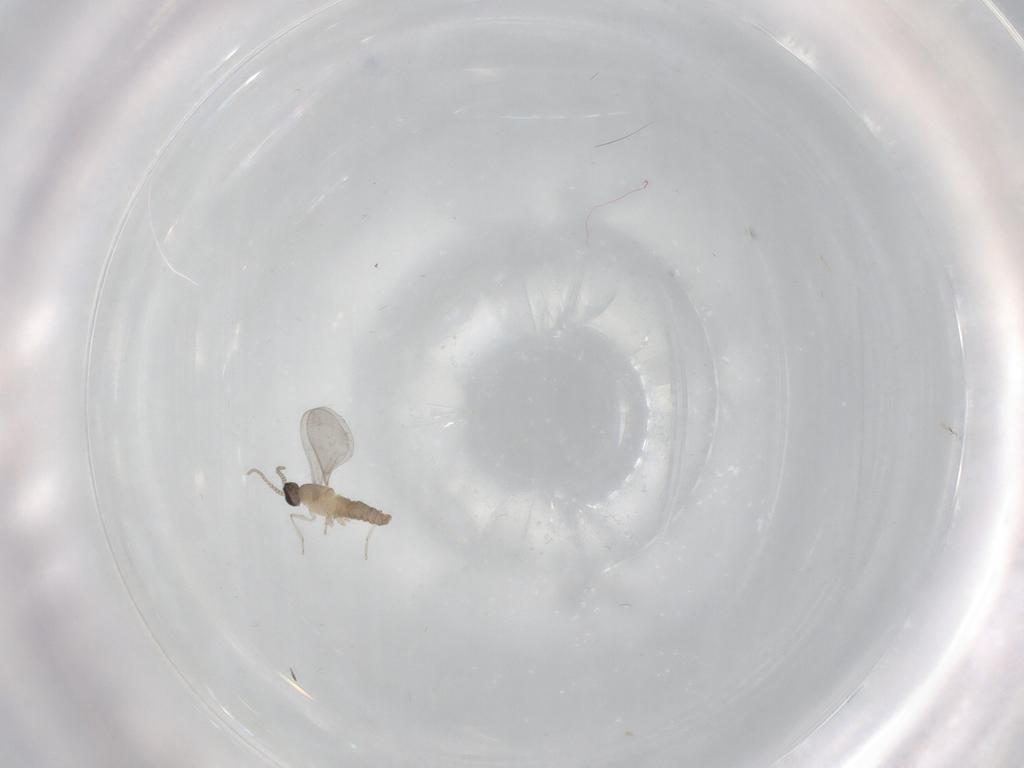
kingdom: Animalia
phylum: Arthropoda
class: Insecta
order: Diptera
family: Cecidomyiidae
